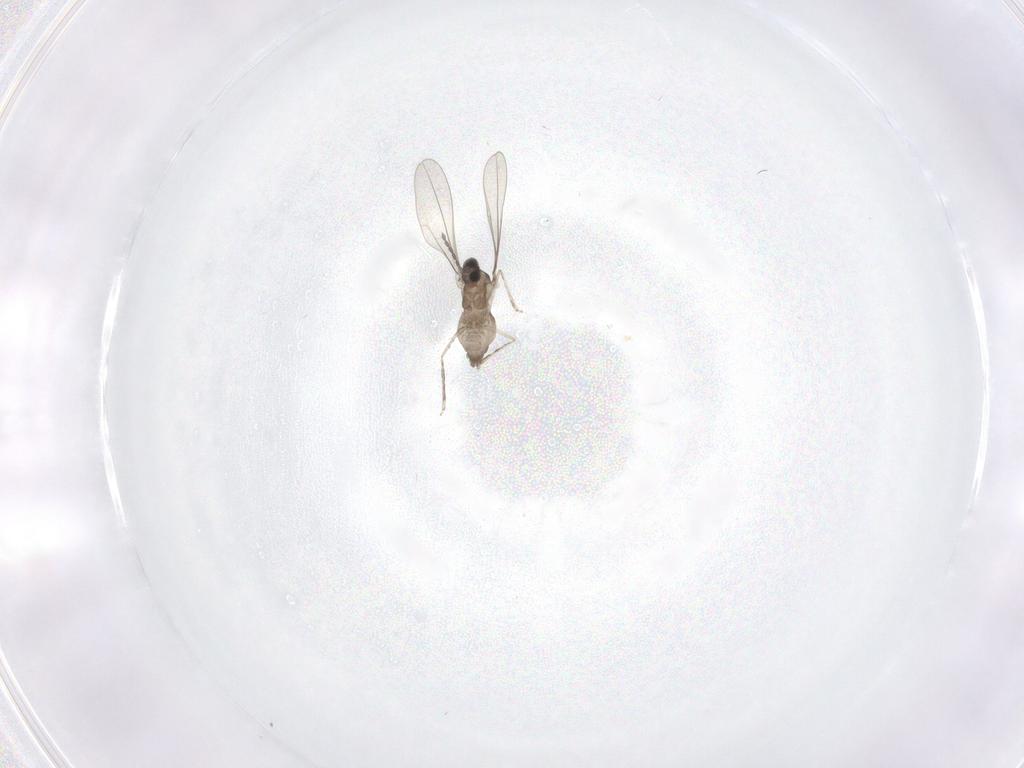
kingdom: Animalia
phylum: Arthropoda
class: Insecta
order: Diptera
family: Cecidomyiidae
